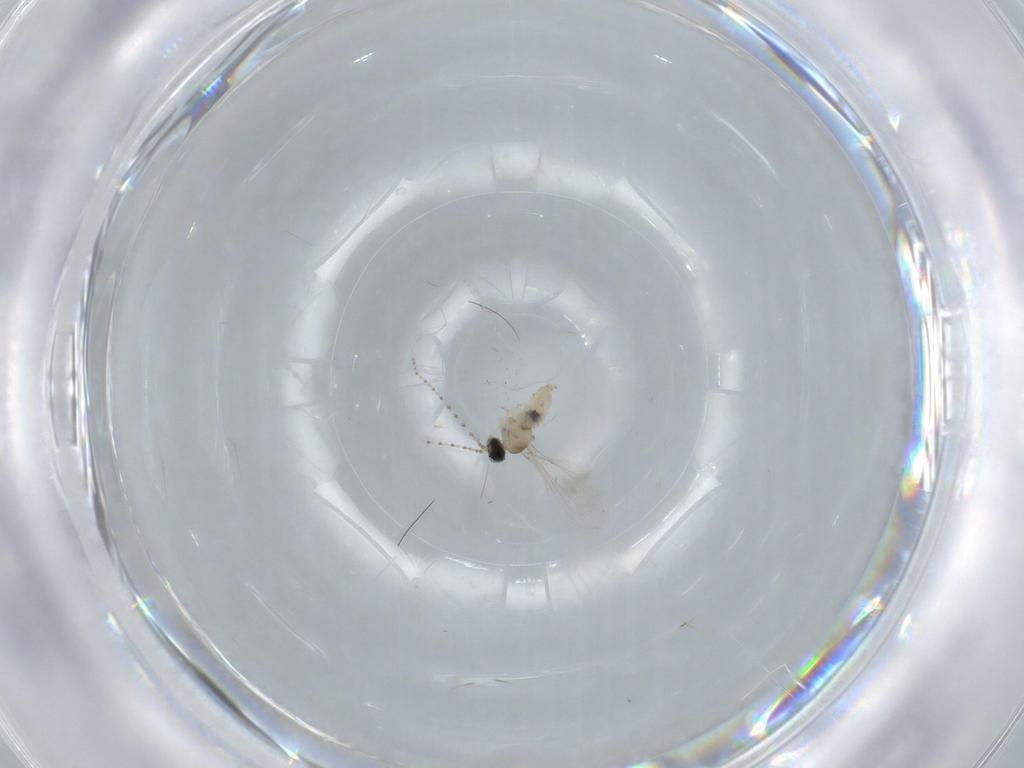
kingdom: Animalia
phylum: Arthropoda
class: Insecta
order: Diptera
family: Cecidomyiidae
